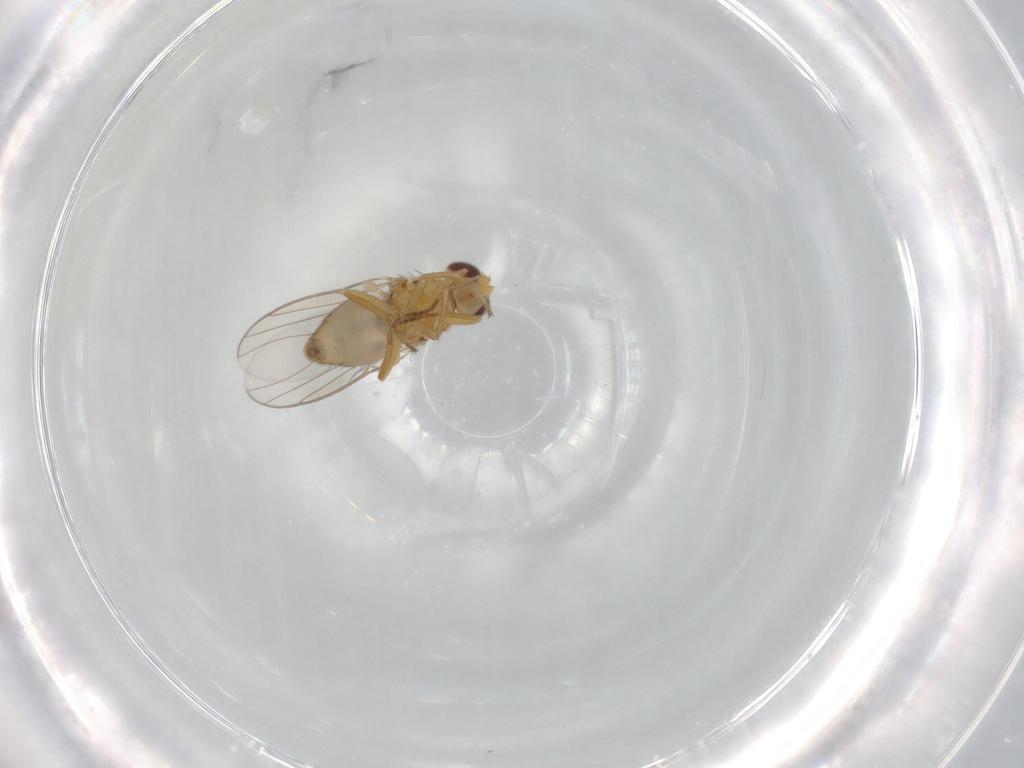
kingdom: Animalia
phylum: Arthropoda
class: Insecta
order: Diptera
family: Chloropidae
